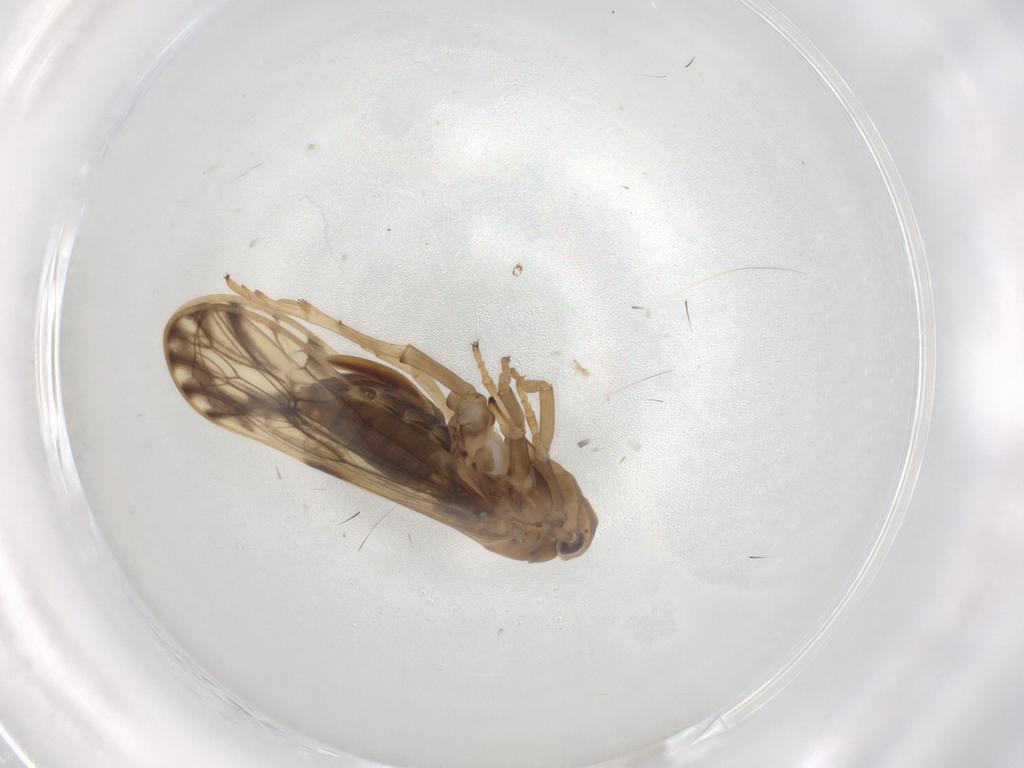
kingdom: Animalia
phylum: Arthropoda
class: Insecta
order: Hemiptera
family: Delphacidae
